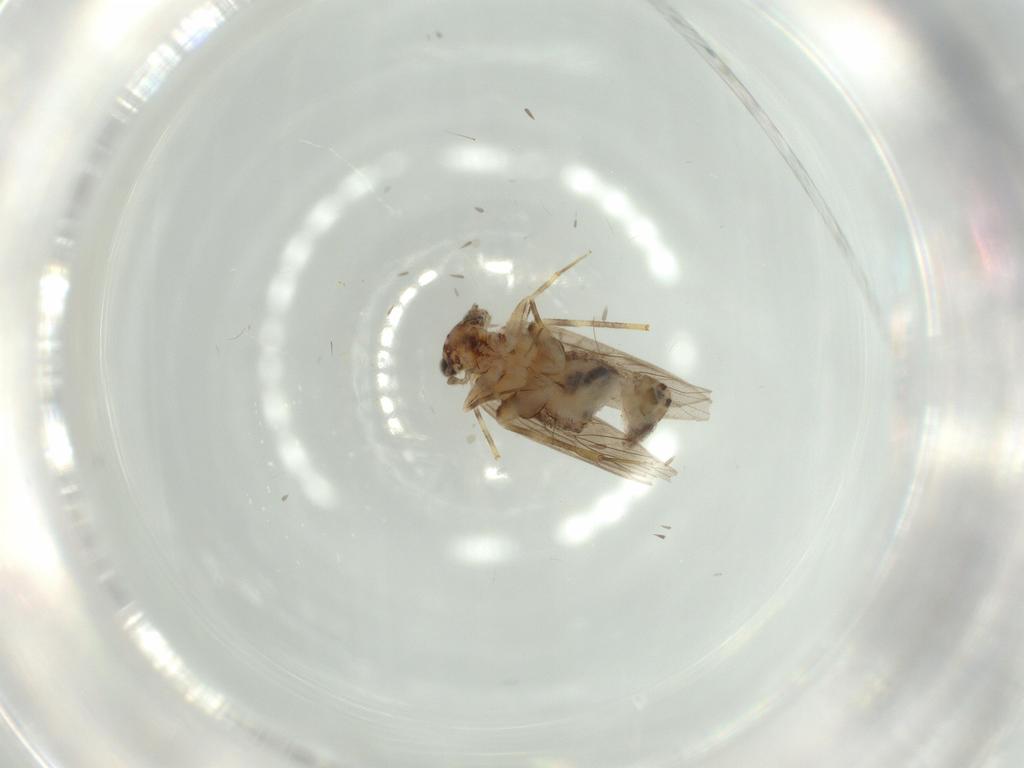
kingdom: Animalia
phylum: Arthropoda
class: Insecta
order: Psocodea
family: Lepidopsocidae
